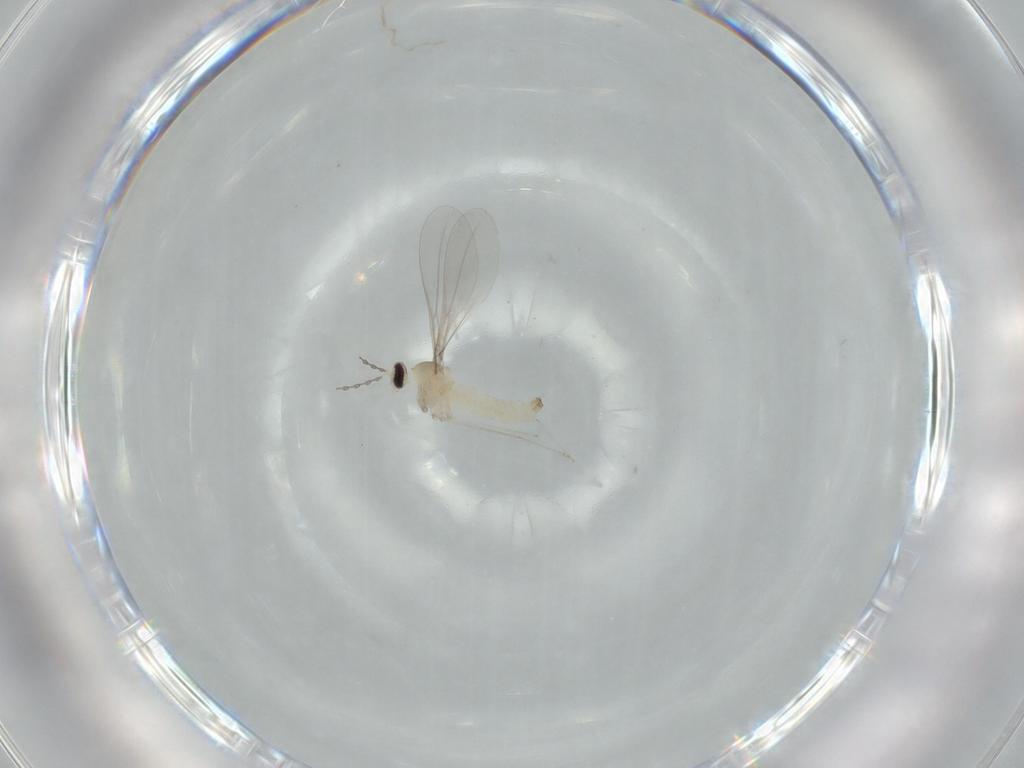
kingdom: Animalia
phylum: Arthropoda
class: Insecta
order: Diptera
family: Cecidomyiidae
